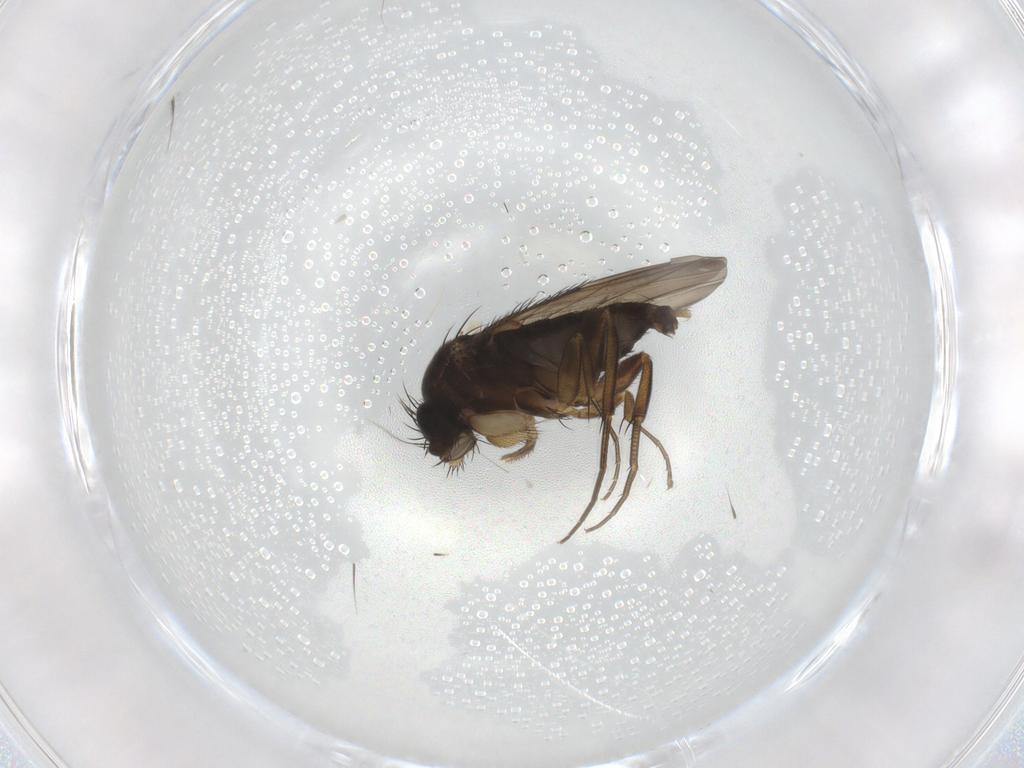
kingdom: Animalia
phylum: Arthropoda
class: Insecta
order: Diptera
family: Phoridae
